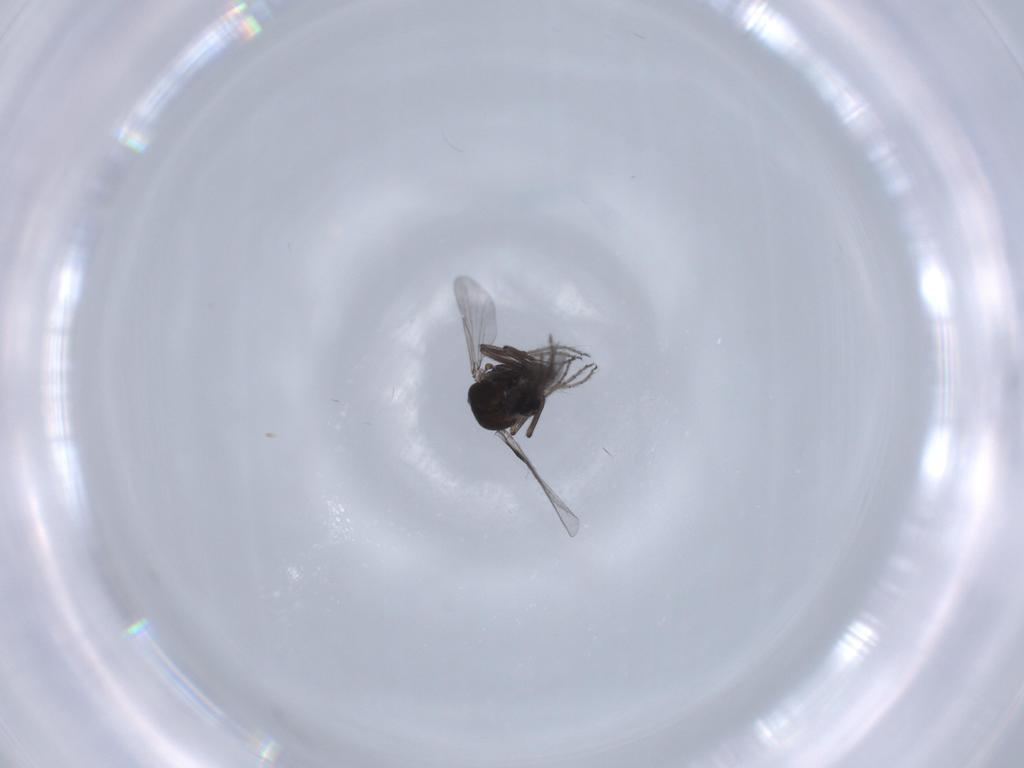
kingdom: Animalia
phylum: Arthropoda
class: Insecta
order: Diptera
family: Ceratopogonidae
